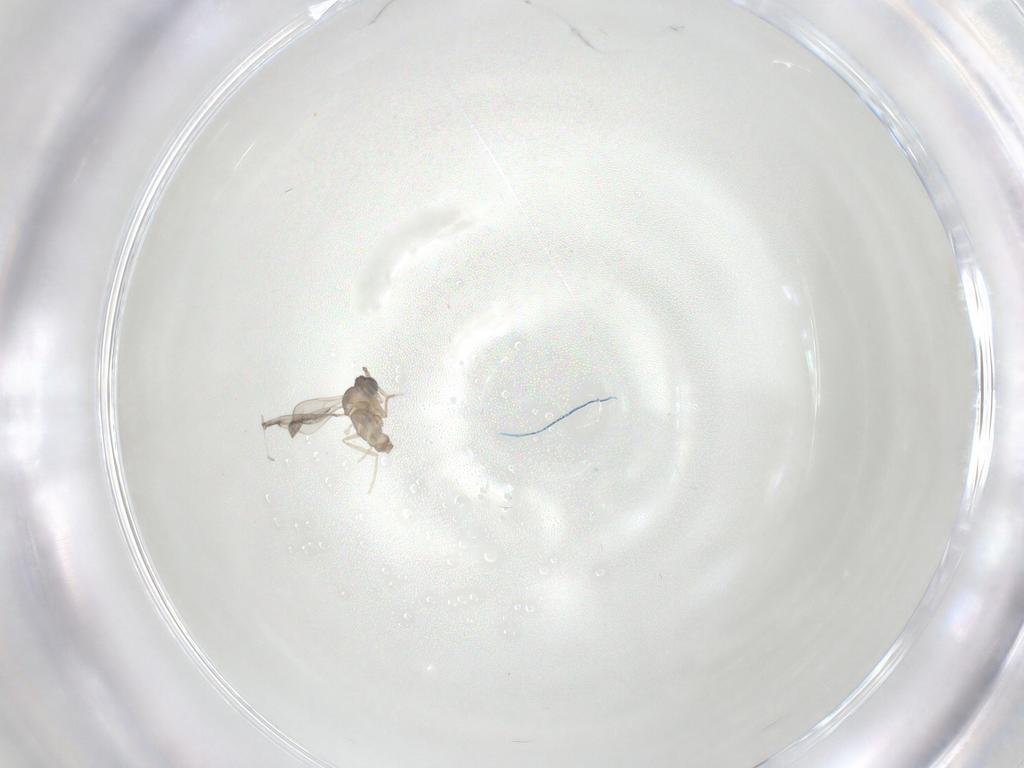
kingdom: Animalia
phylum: Arthropoda
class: Insecta
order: Diptera
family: Cecidomyiidae
